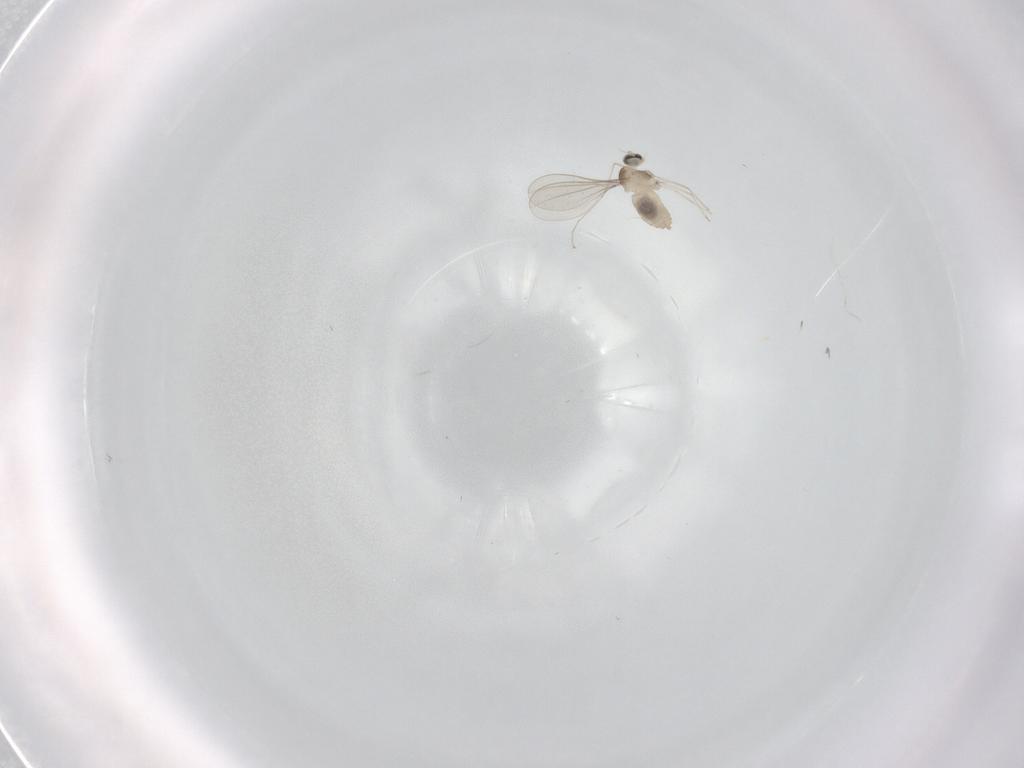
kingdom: Animalia
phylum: Arthropoda
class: Insecta
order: Diptera
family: Cecidomyiidae
